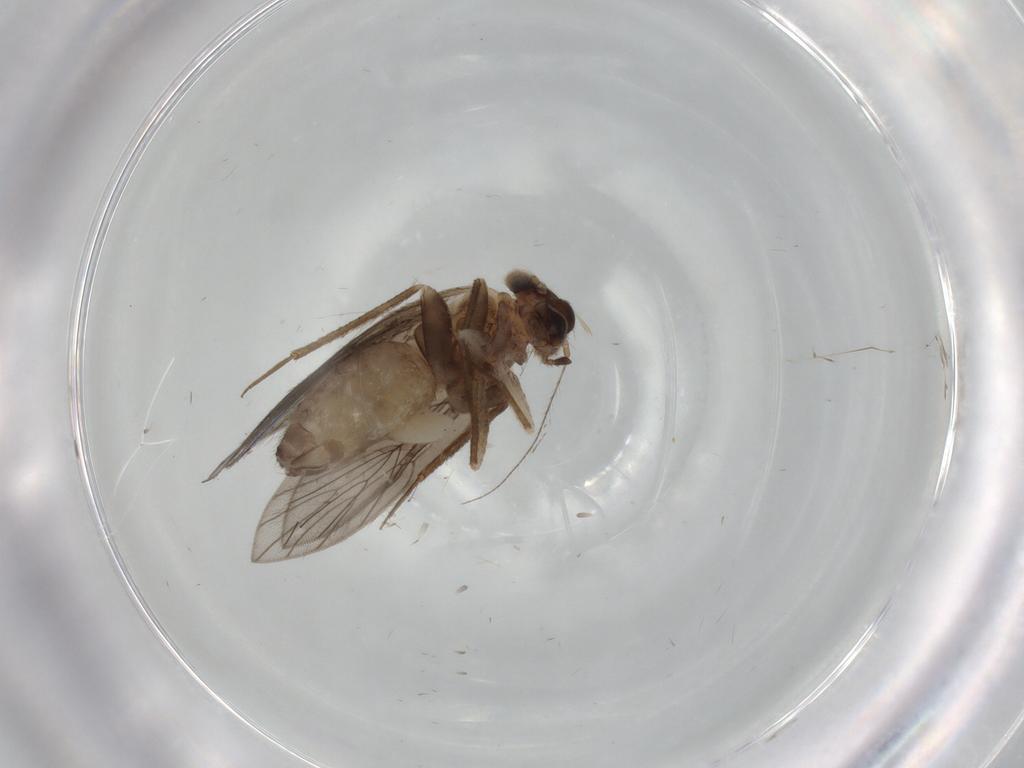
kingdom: Animalia
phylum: Arthropoda
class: Insecta
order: Psocodea
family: Lepidopsocidae
